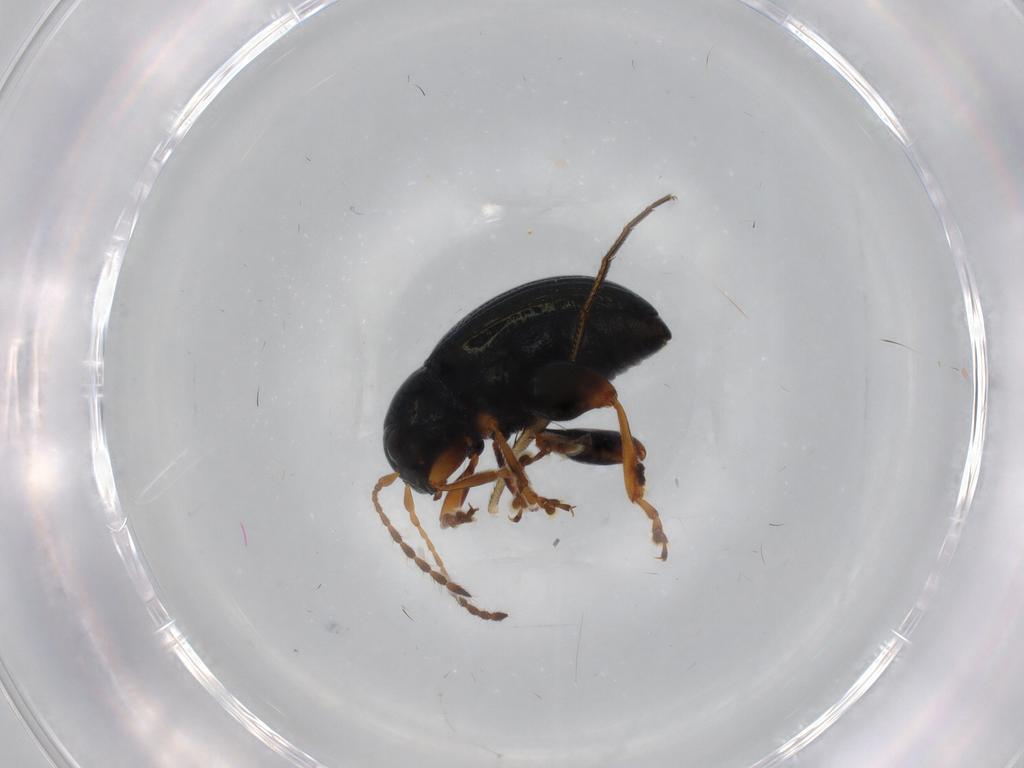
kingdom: Animalia
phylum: Arthropoda
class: Insecta
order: Coleoptera
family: Chrysomelidae
